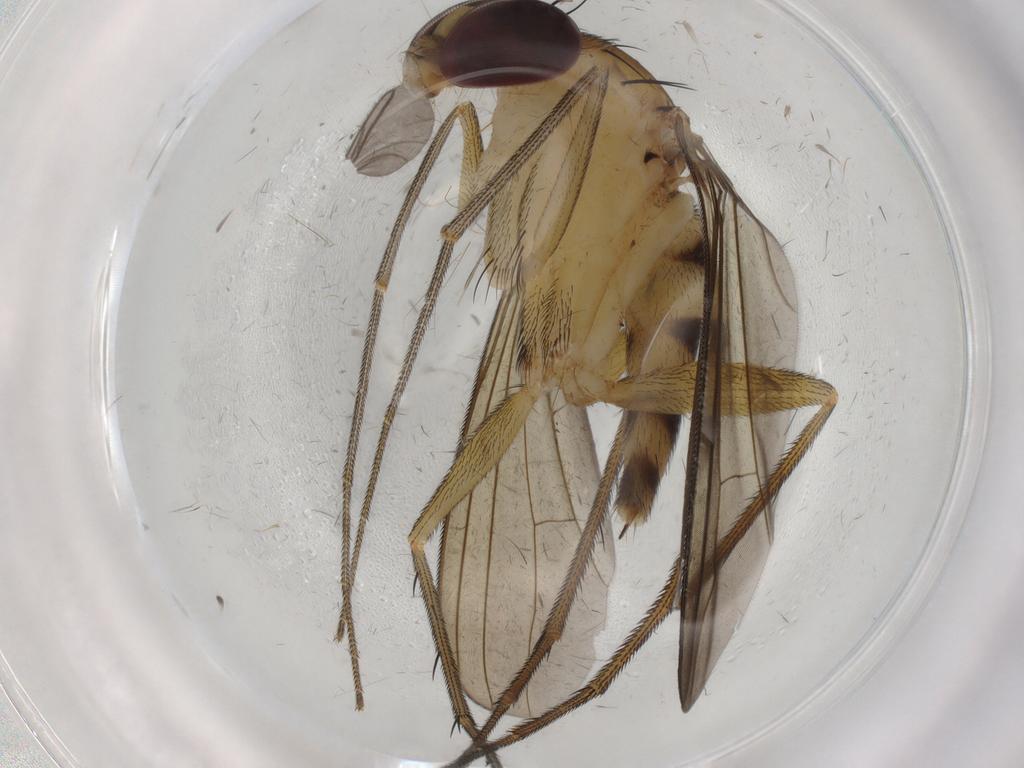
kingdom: Animalia
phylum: Arthropoda
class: Insecta
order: Diptera
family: Dolichopodidae
